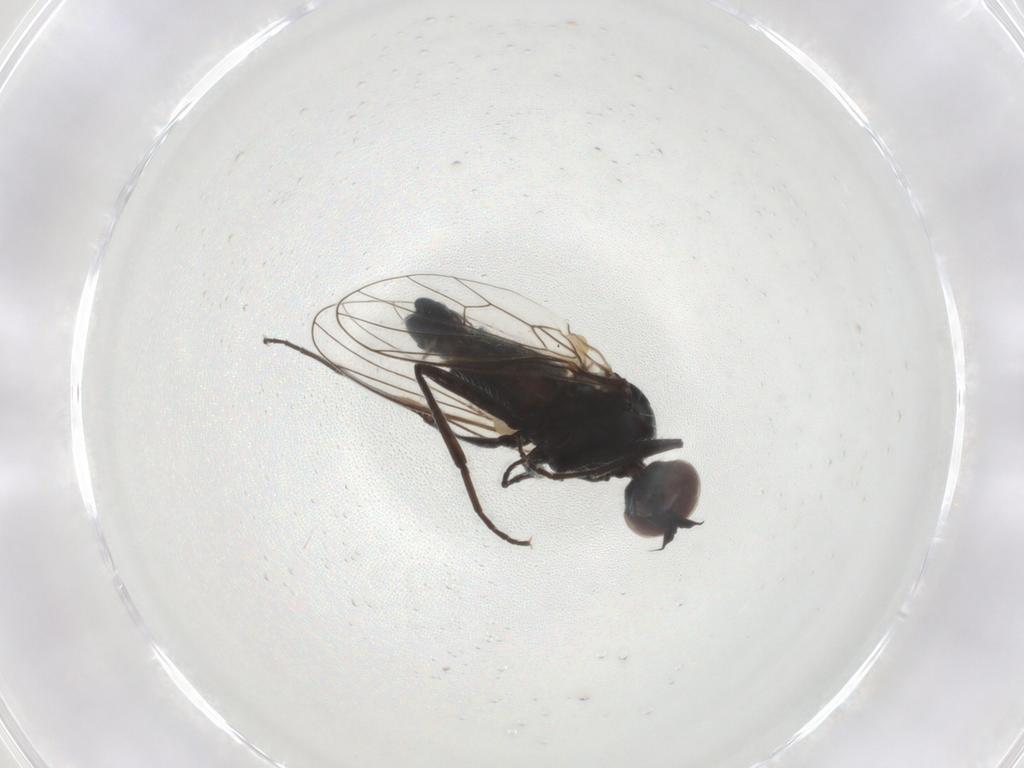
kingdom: Animalia
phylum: Arthropoda
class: Insecta
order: Diptera
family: Dolichopodidae
